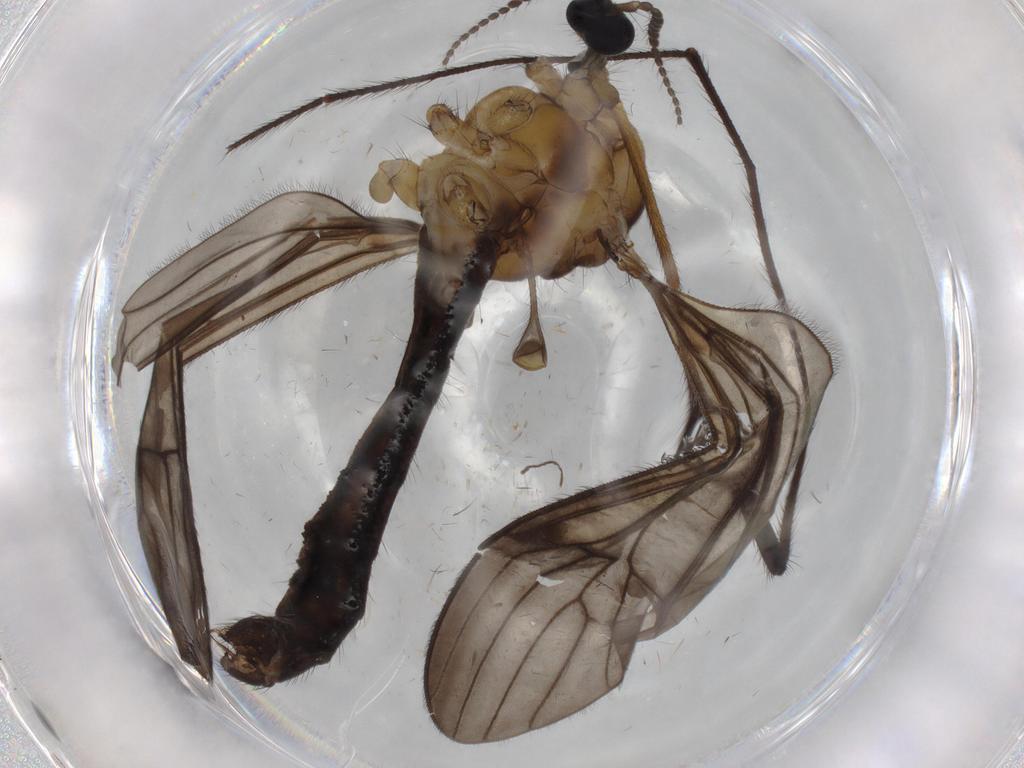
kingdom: Animalia
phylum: Arthropoda
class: Insecta
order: Diptera
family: Limoniidae
